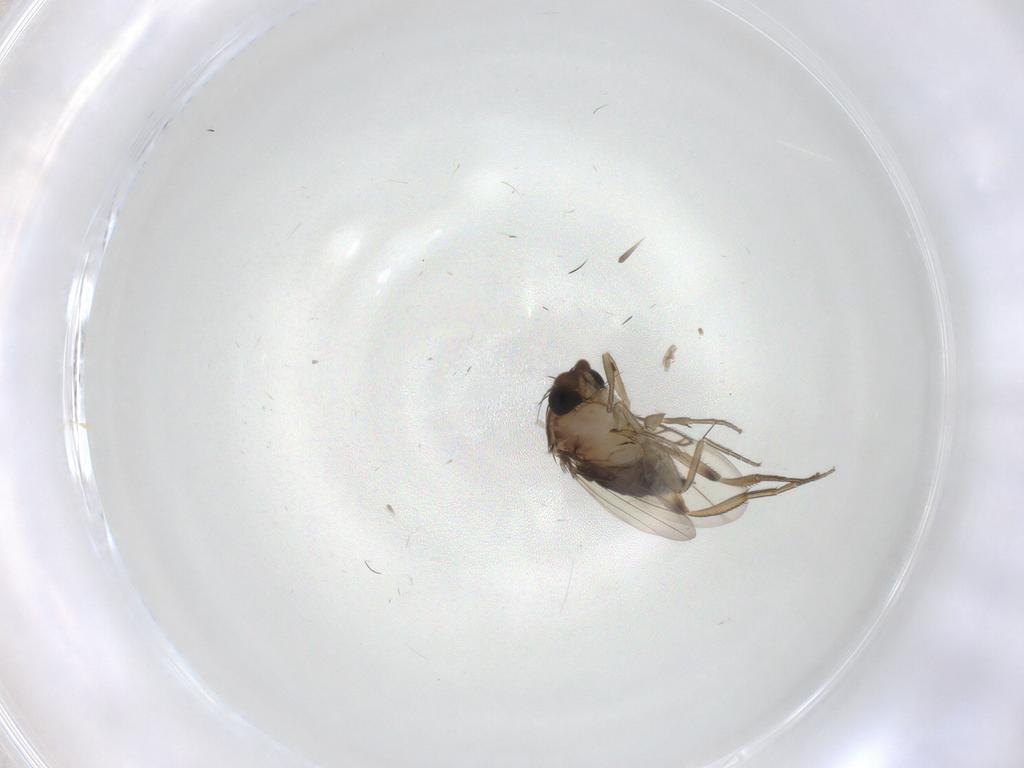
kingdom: Animalia
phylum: Arthropoda
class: Insecta
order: Diptera
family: Phoridae
